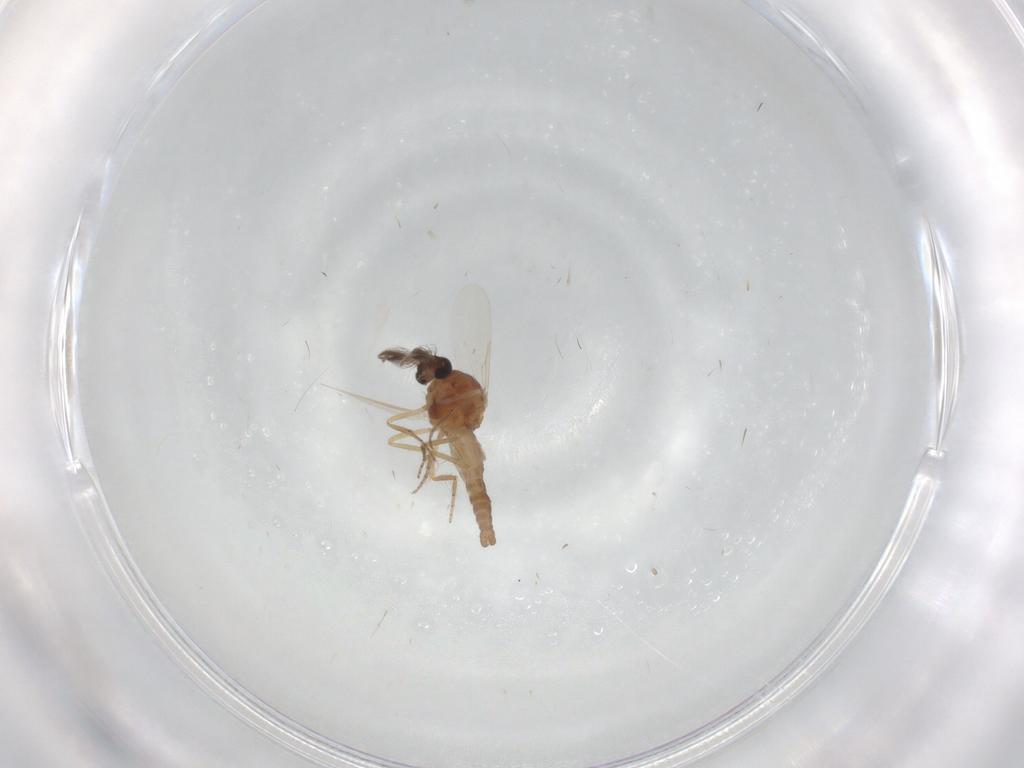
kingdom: Animalia
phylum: Arthropoda
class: Insecta
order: Diptera
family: Ceratopogonidae
